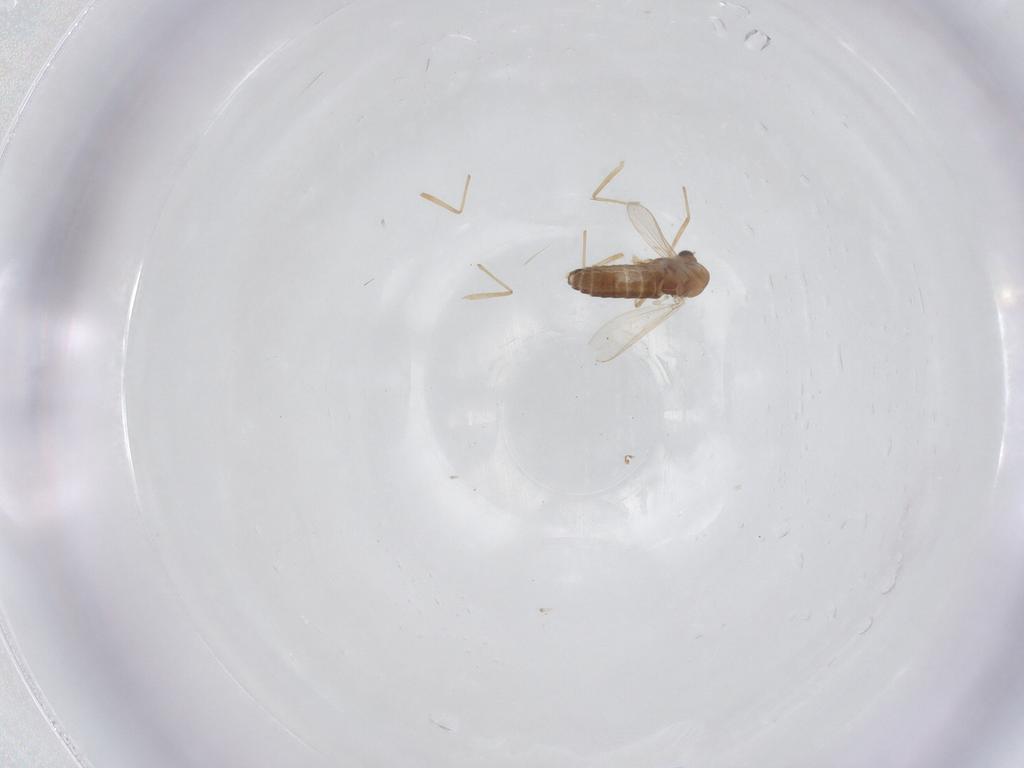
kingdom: Animalia
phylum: Arthropoda
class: Insecta
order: Diptera
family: Chironomidae
